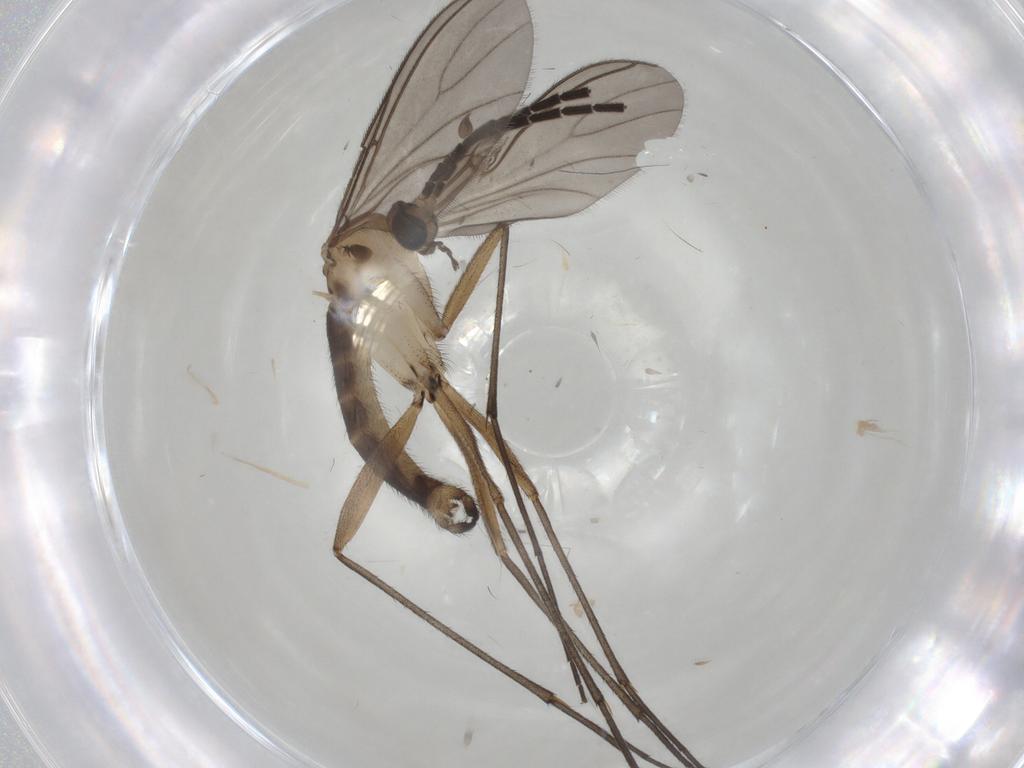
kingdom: Animalia
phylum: Arthropoda
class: Insecta
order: Diptera
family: Sciaridae
